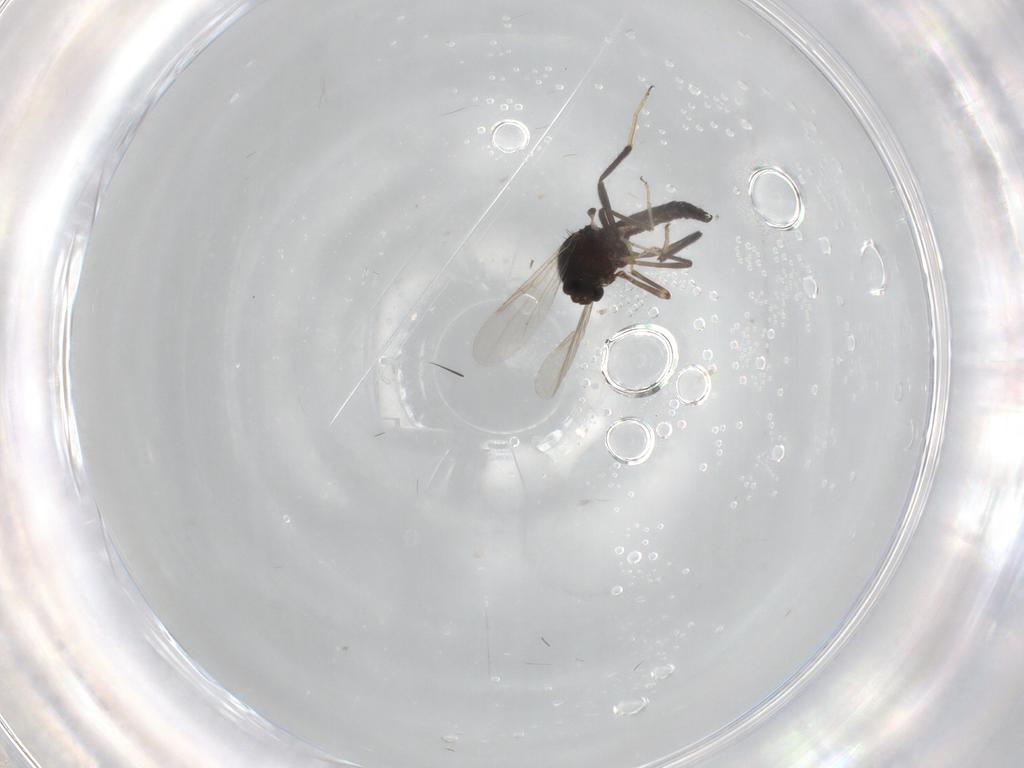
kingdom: Animalia
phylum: Arthropoda
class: Insecta
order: Diptera
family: Ceratopogonidae
